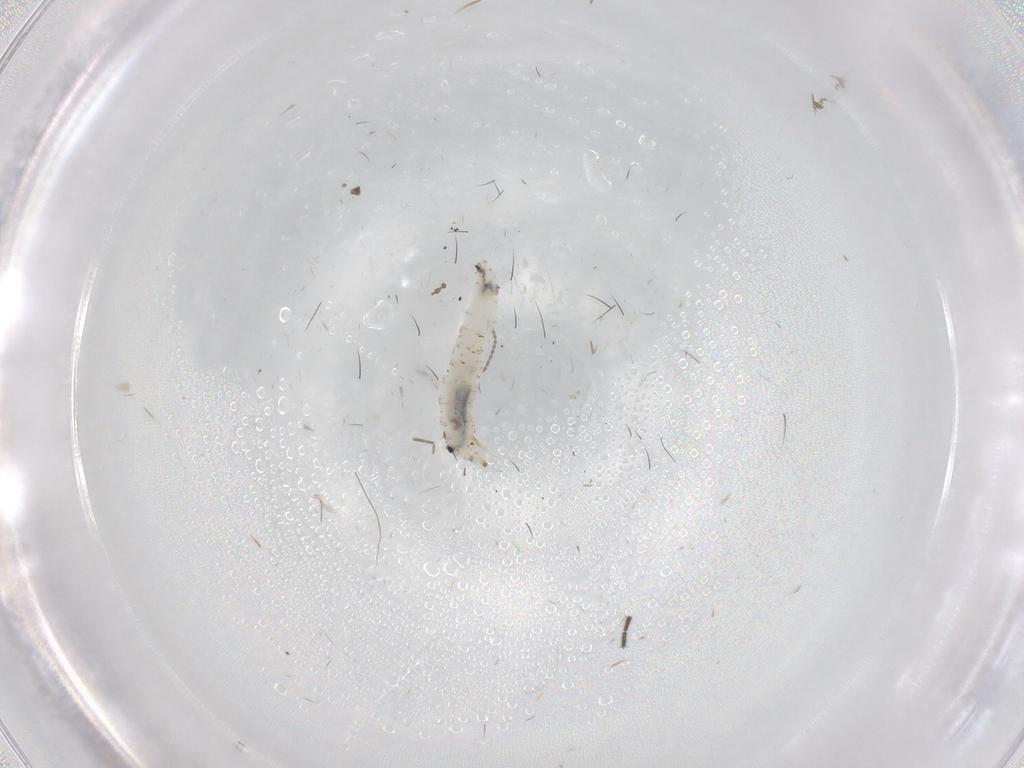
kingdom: Animalia
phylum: Arthropoda
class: Insecta
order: Diptera
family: Drosophilidae
